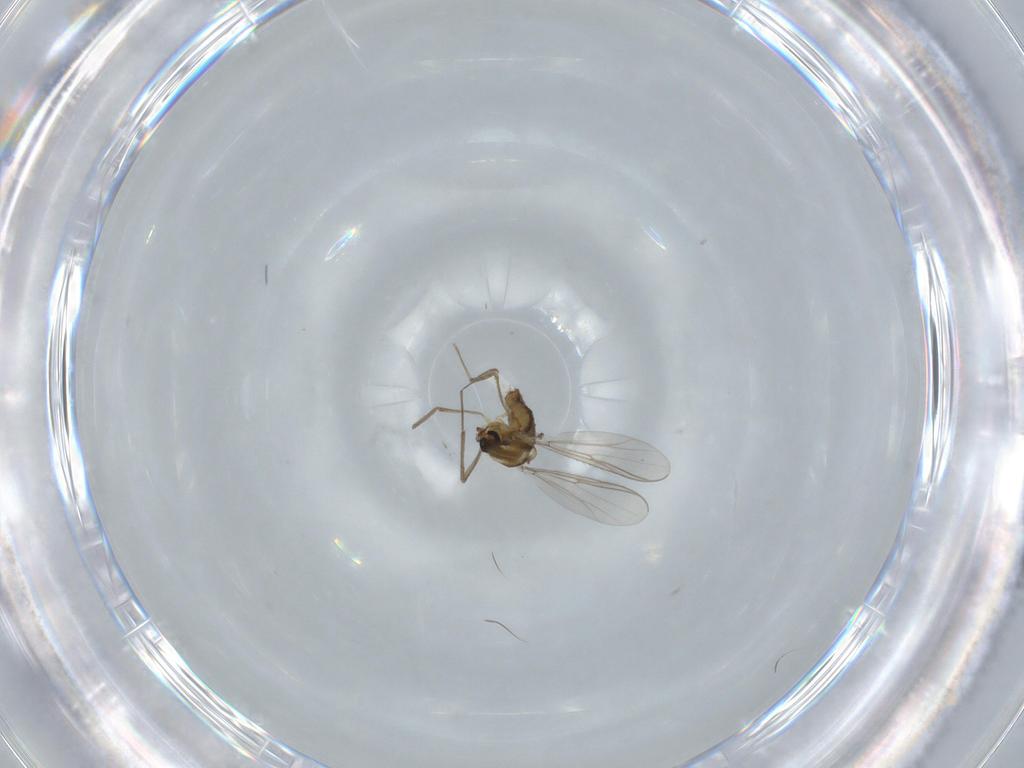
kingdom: Animalia
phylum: Arthropoda
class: Insecta
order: Diptera
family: Chironomidae
